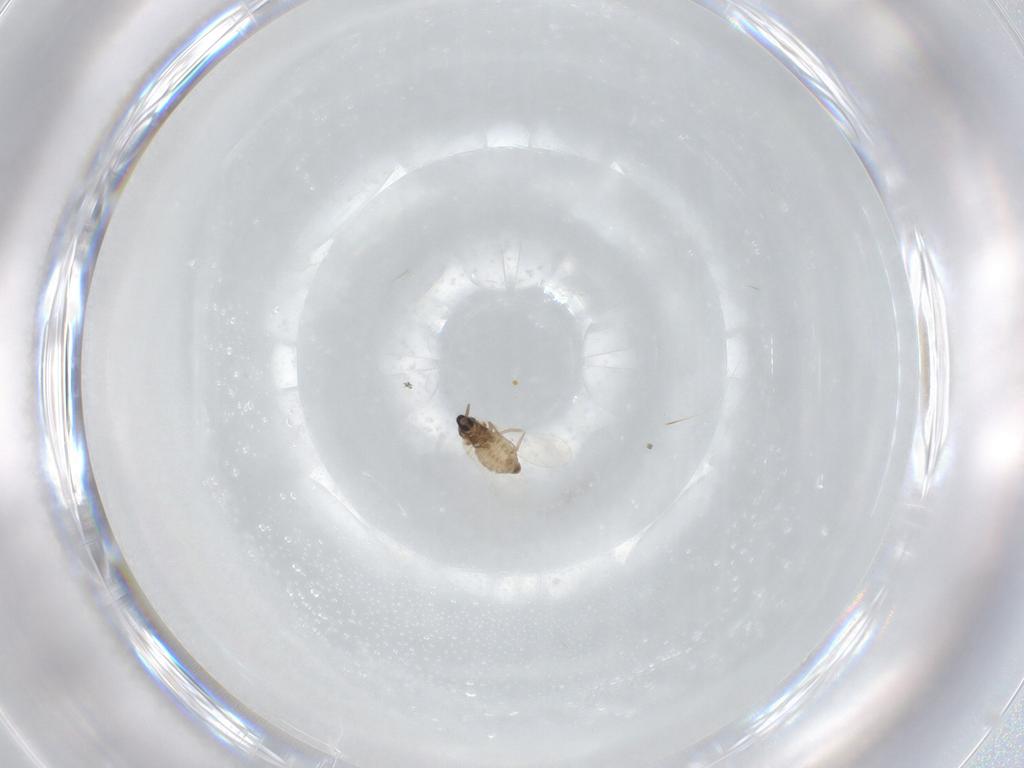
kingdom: Animalia
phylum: Arthropoda
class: Insecta
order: Diptera
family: Cecidomyiidae
